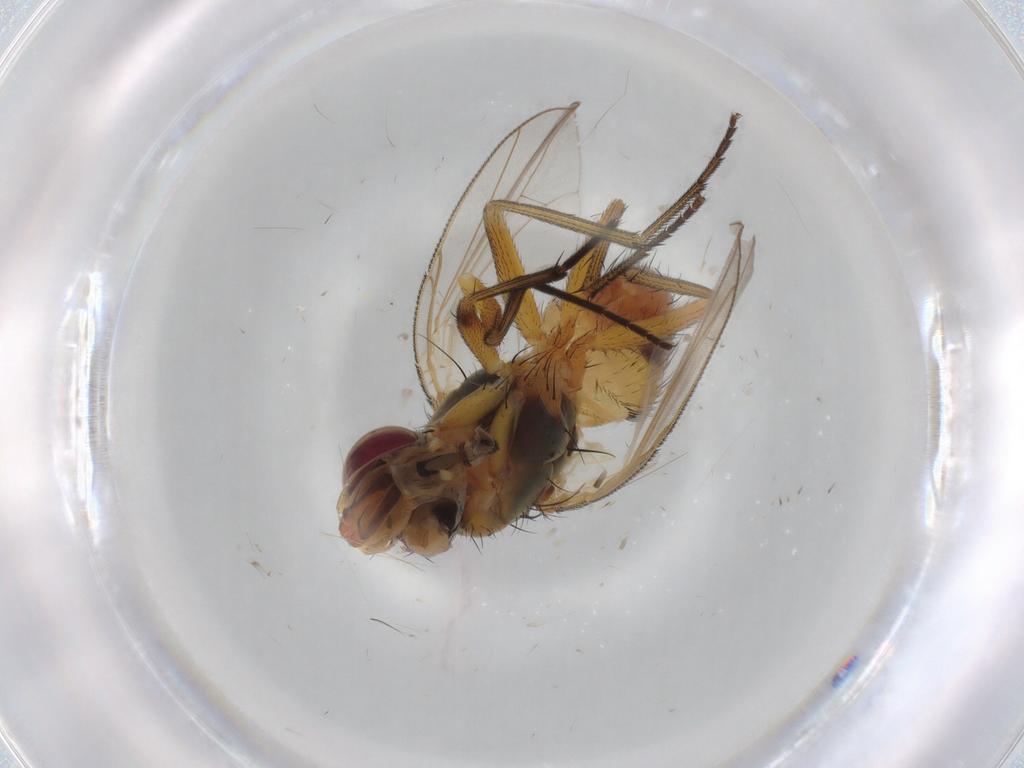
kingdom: Animalia
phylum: Arthropoda
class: Insecta
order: Diptera
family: Muscidae
